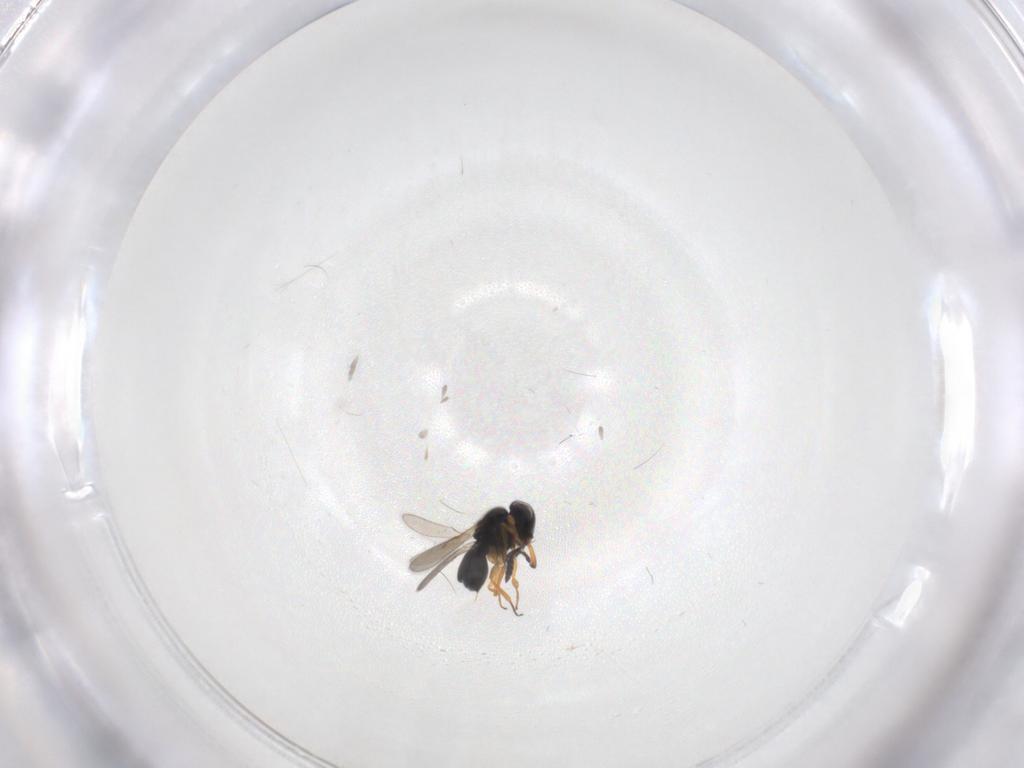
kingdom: Animalia
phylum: Arthropoda
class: Insecta
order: Hymenoptera
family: Scelionidae
